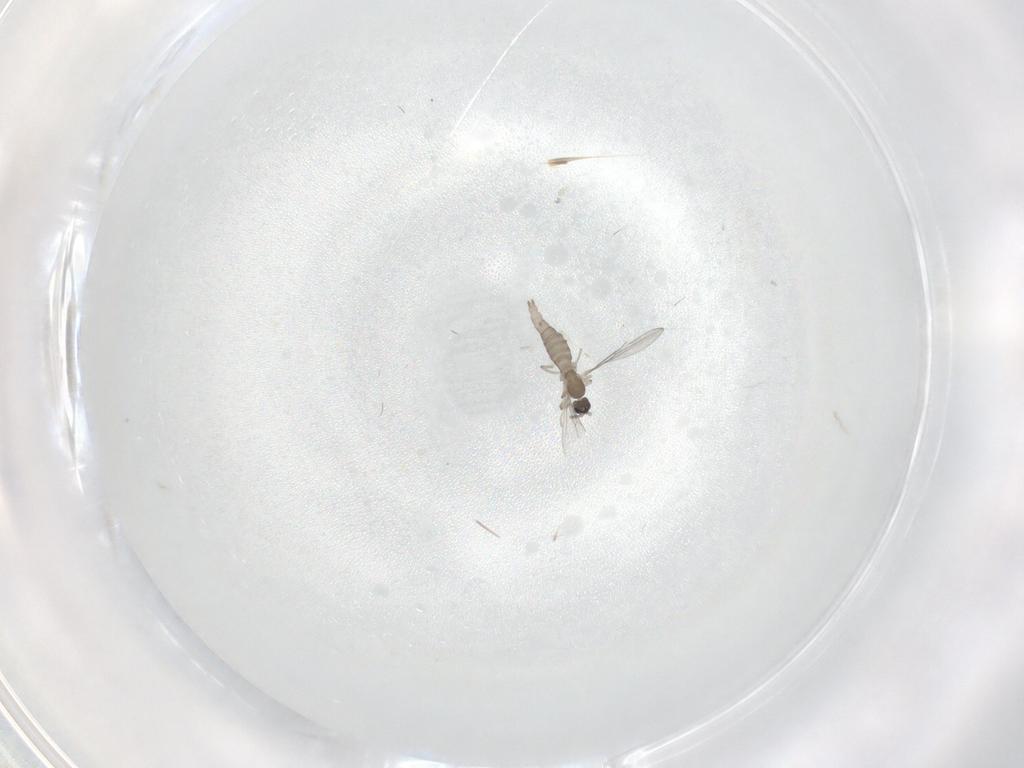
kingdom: Animalia
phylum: Arthropoda
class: Insecta
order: Diptera
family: Cecidomyiidae
